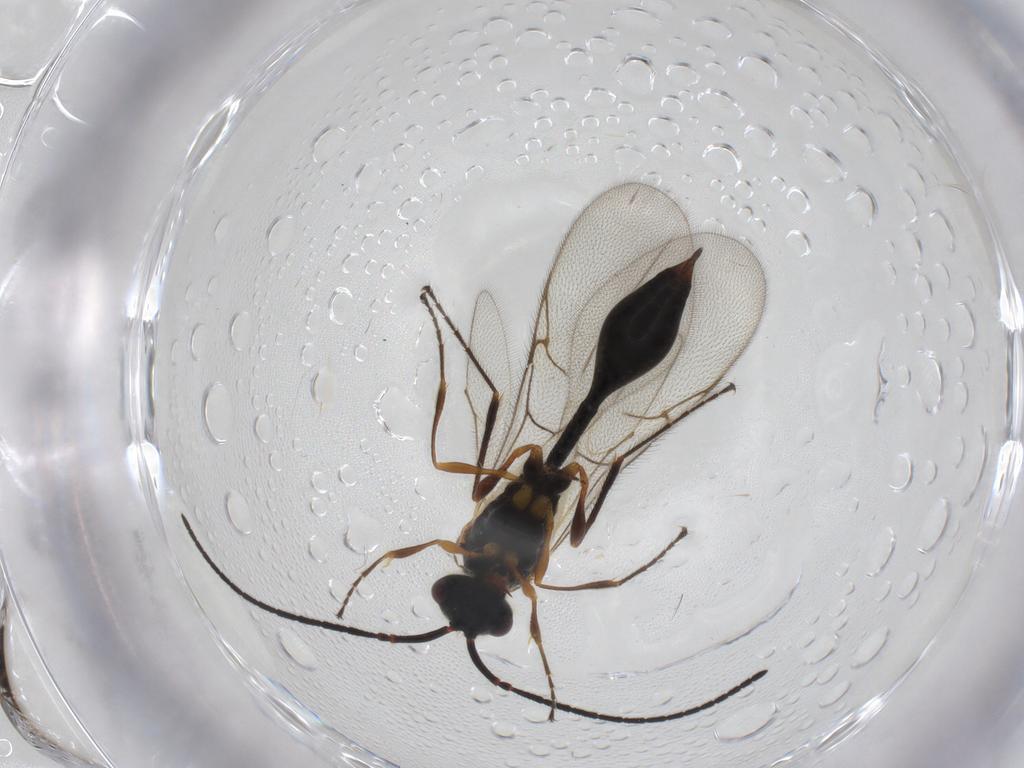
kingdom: Animalia
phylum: Arthropoda
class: Insecta
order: Hymenoptera
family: Diapriidae
